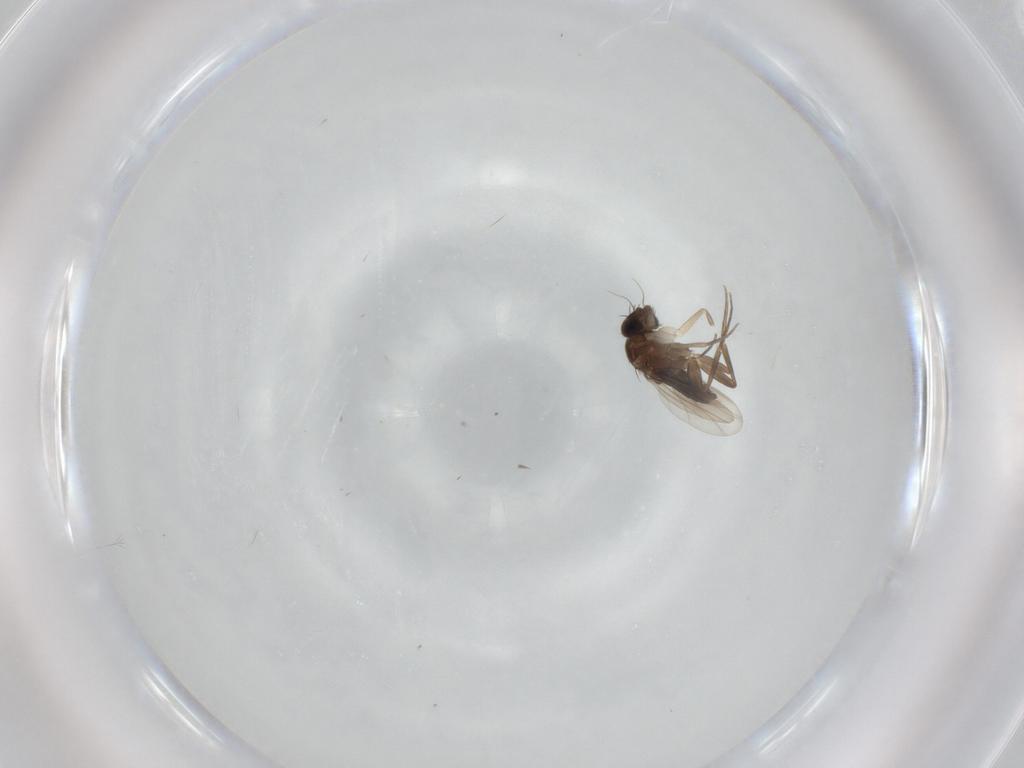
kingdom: Animalia
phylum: Arthropoda
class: Insecta
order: Diptera
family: Phoridae
